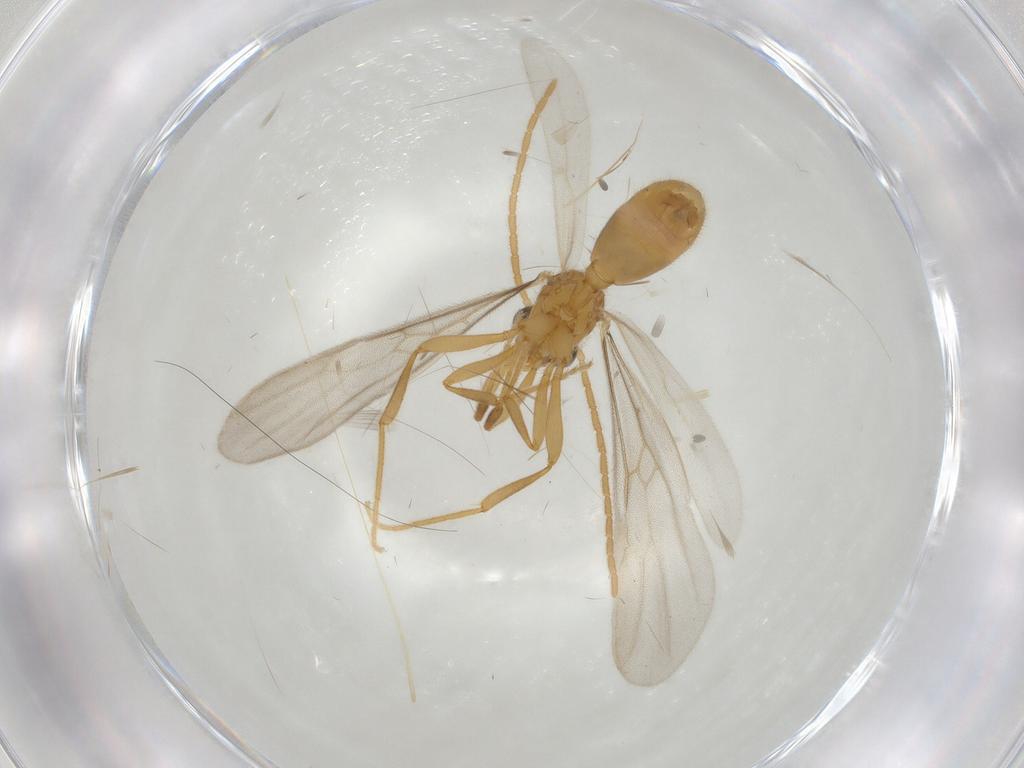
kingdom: Animalia
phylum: Arthropoda
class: Insecta
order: Hymenoptera
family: Formicidae
